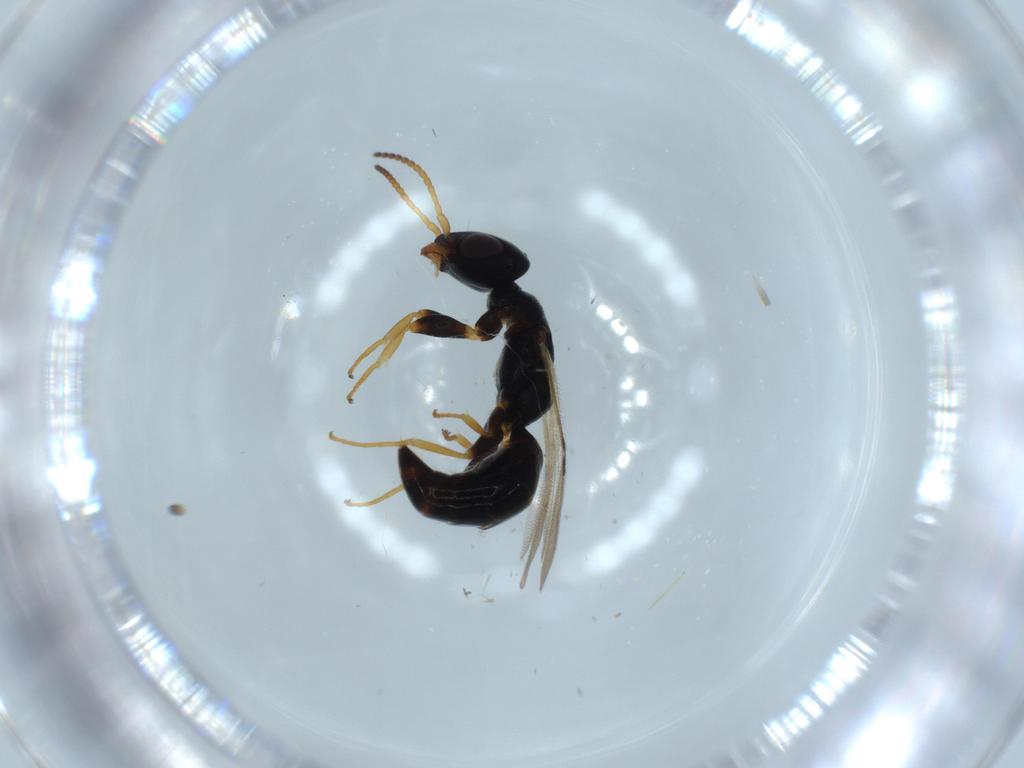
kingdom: Animalia
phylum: Arthropoda
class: Insecta
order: Hymenoptera
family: Bethylidae
